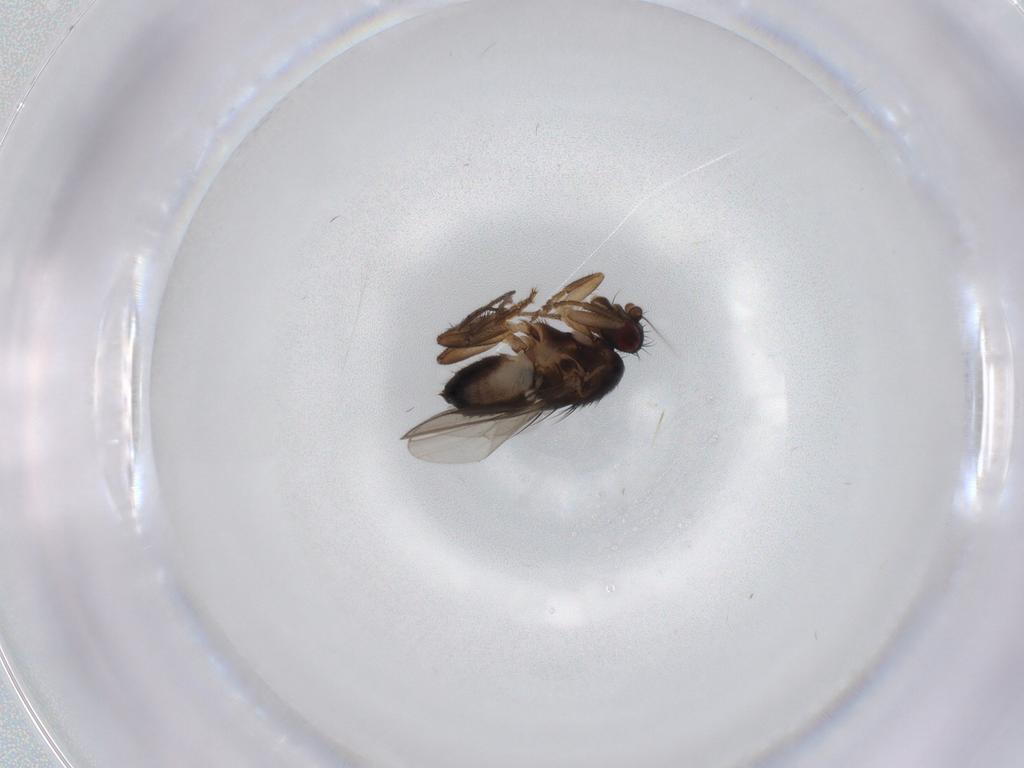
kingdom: Animalia
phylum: Arthropoda
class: Insecta
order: Diptera
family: Sphaeroceridae
